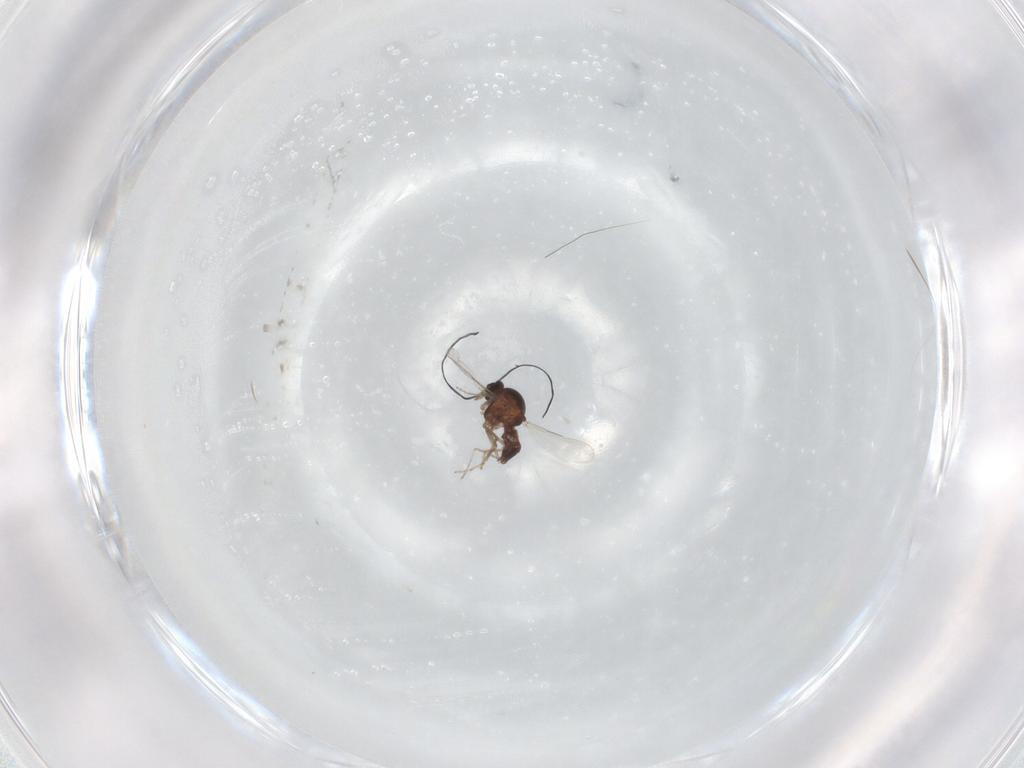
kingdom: Animalia
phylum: Arthropoda
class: Insecta
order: Diptera
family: Ceratopogonidae
